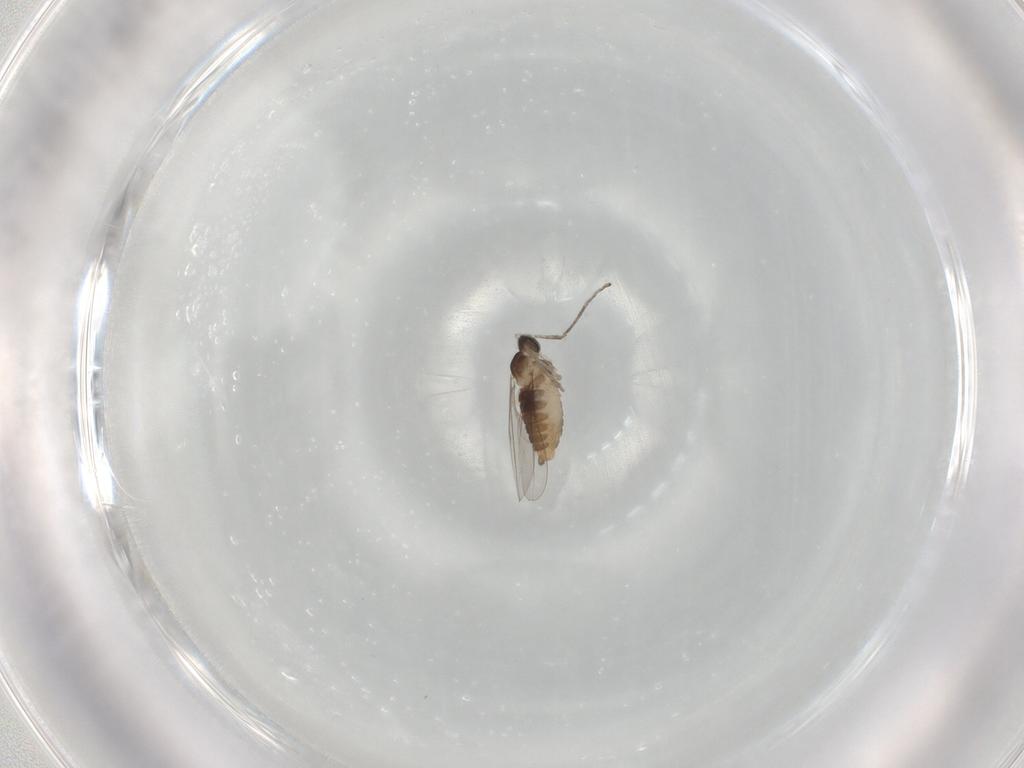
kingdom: Animalia
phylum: Arthropoda
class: Insecta
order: Diptera
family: Cecidomyiidae
